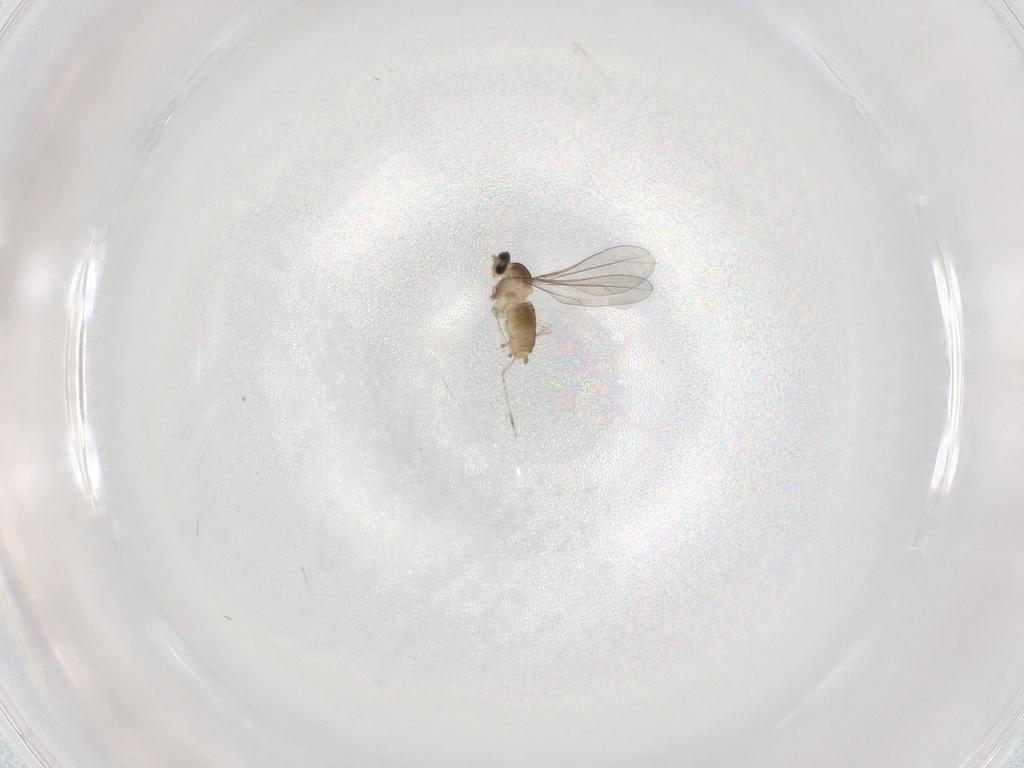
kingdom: Animalia
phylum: Arthropoda
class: Insecta
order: Diptera
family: Cecidomyiidae
